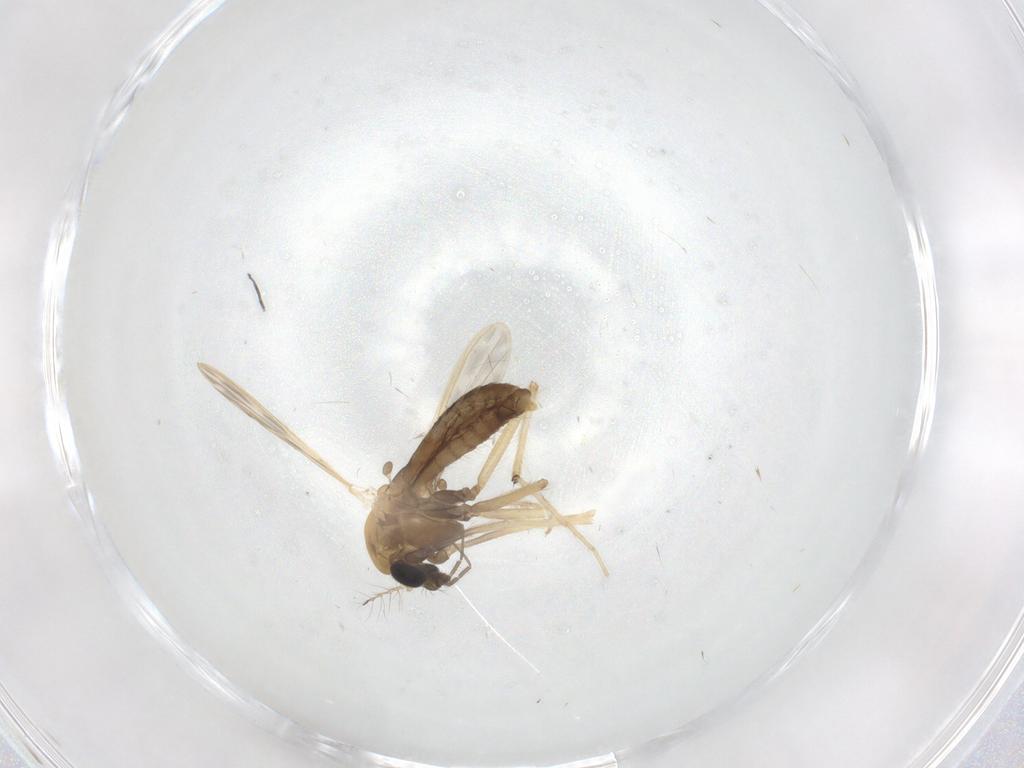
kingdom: Animalia
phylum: Arthropoda
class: Insecta
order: Diptera
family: Chironomidae
